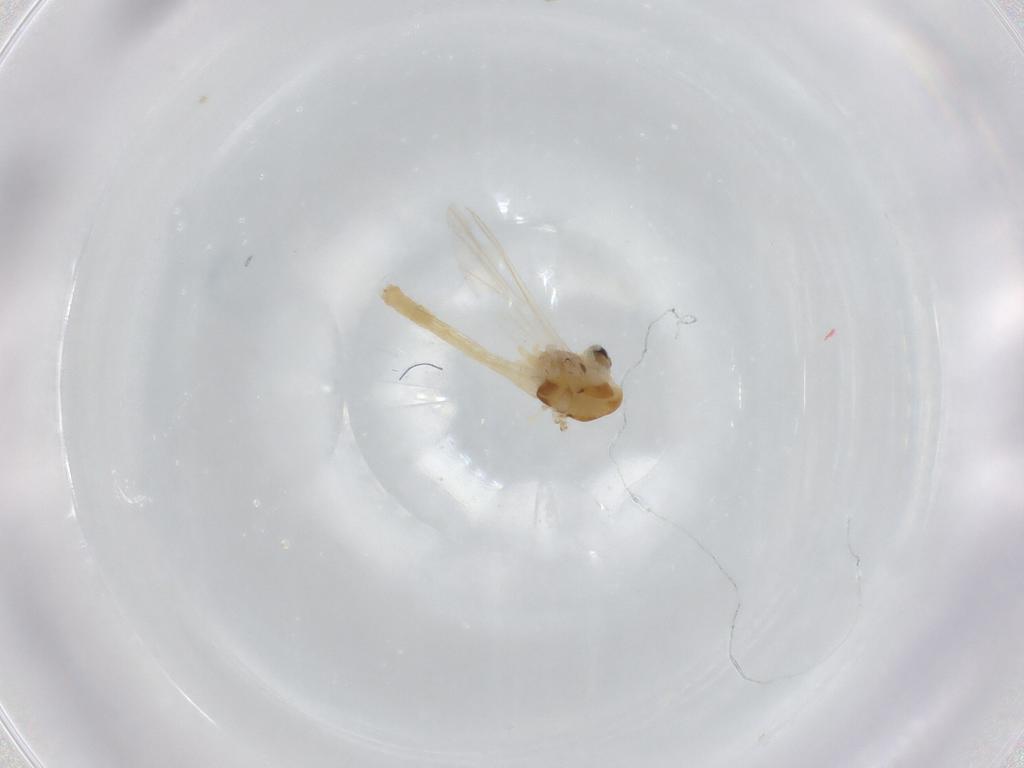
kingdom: Animalia
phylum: Arthropoda
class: Insecta
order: Diptera
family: Chironomidae
